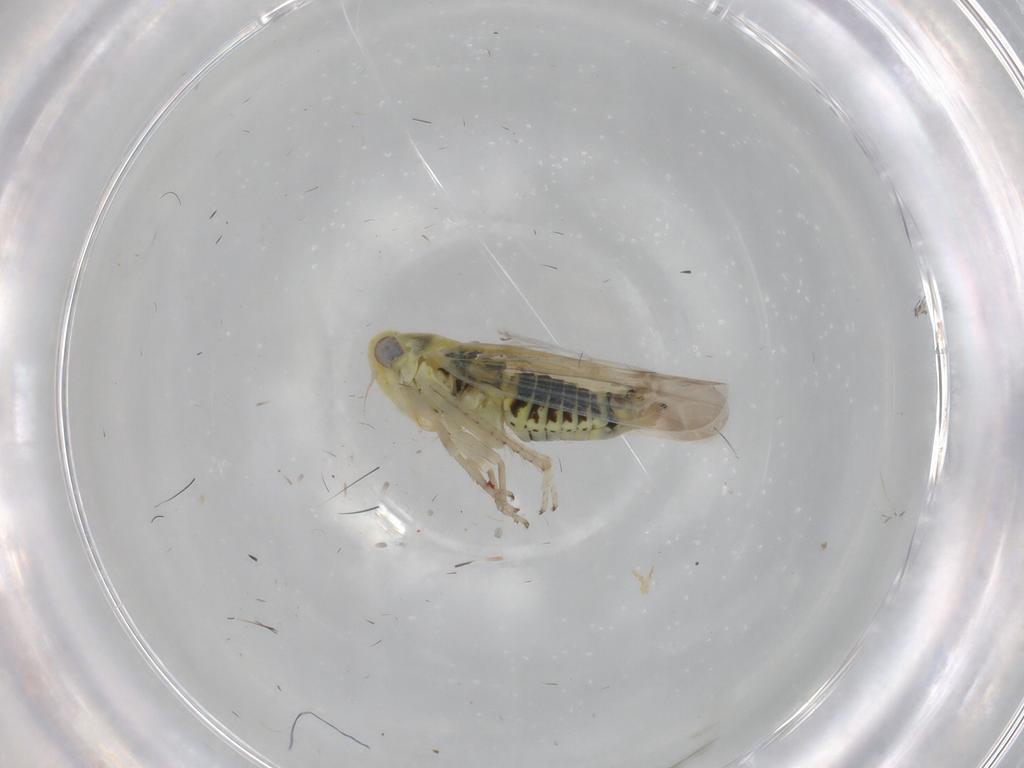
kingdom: Animalia
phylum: Arthropoda
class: Insecta
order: Hemiptera
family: Cicadellidae
